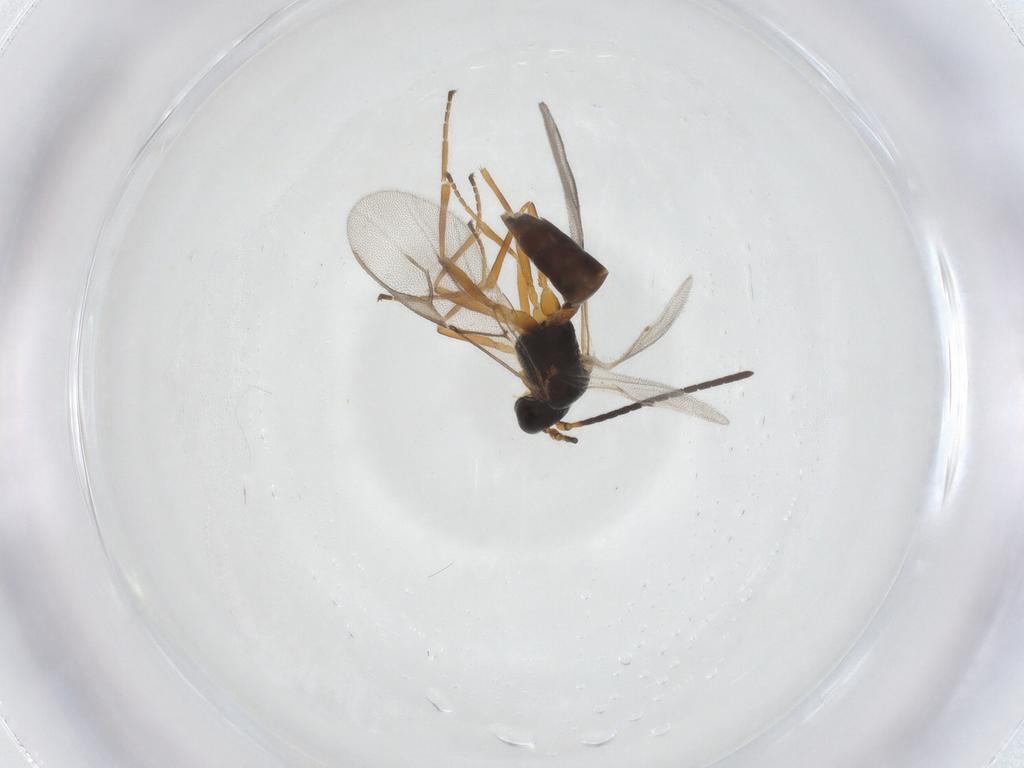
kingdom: Animalia
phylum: Arthropoda
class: Insecta
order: Hymenoptera
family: Braconidae
